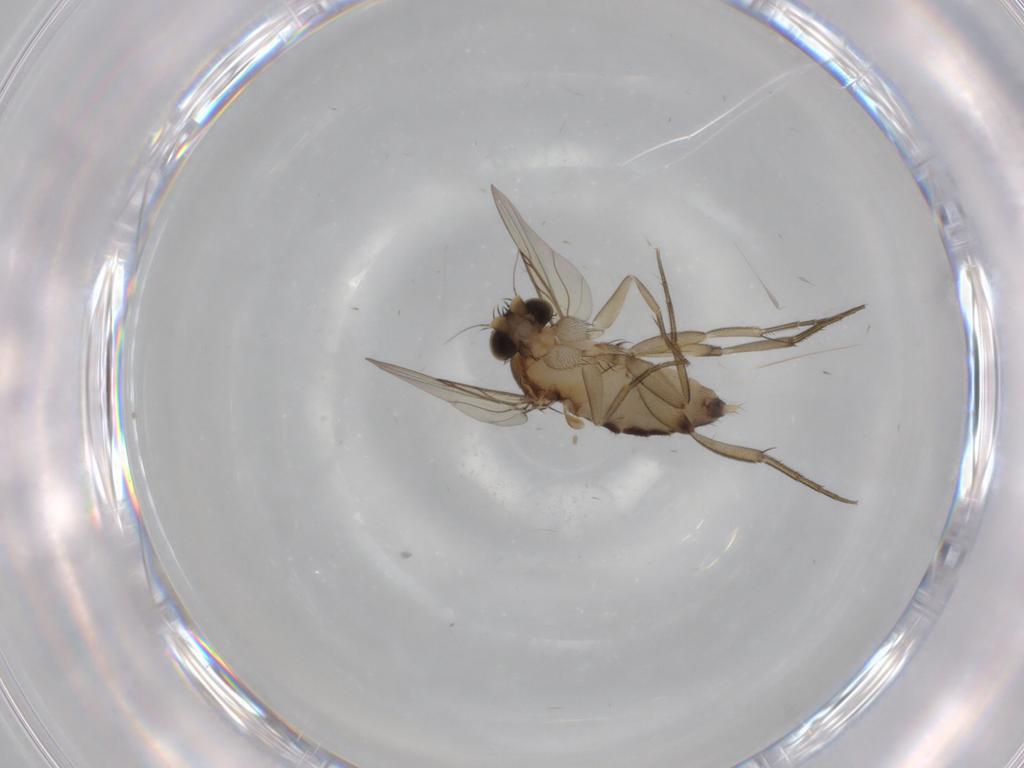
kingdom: Animalia
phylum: Arthropoda
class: Insecta
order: Diptera
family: Phoridae
